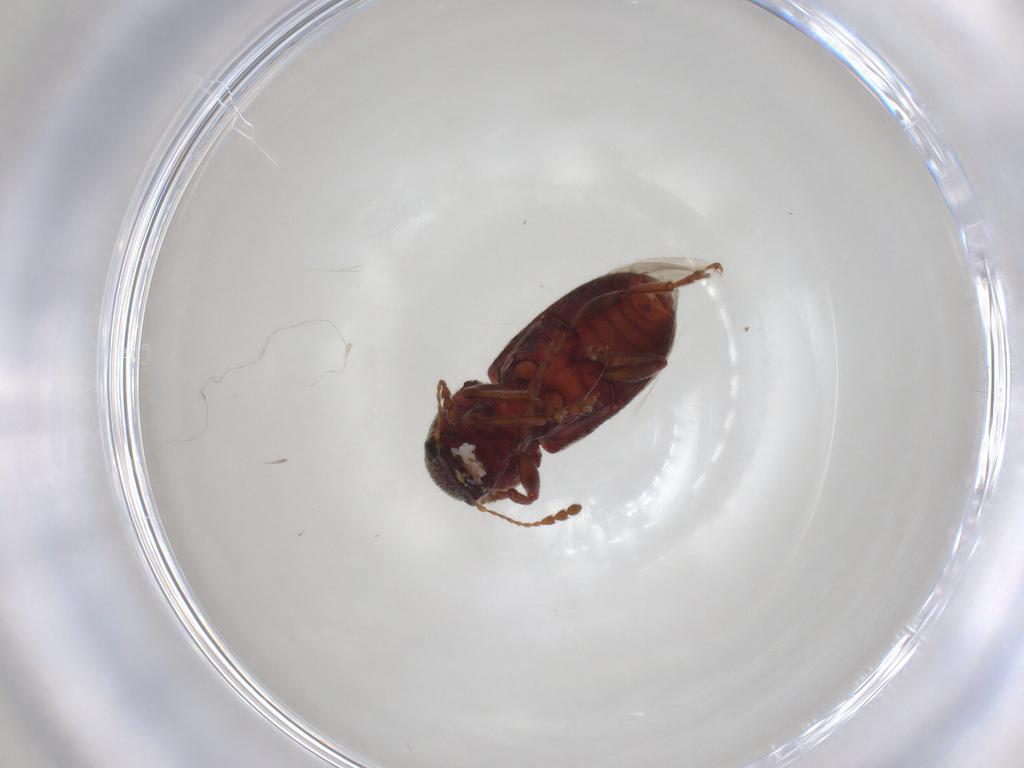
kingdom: Animalia
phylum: Arthropoda
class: Insecta
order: Coleoptera
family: Anthribidae
